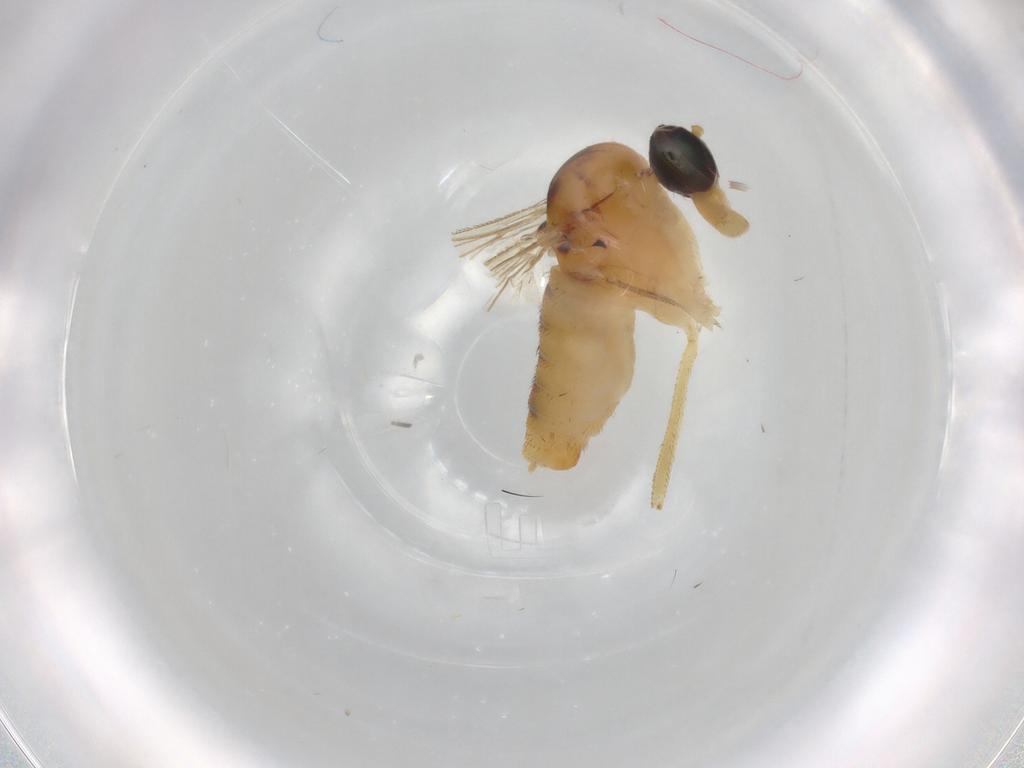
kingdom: Animalia
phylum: Arthropoda
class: Insecta
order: Diptera
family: Dolichopodidae
